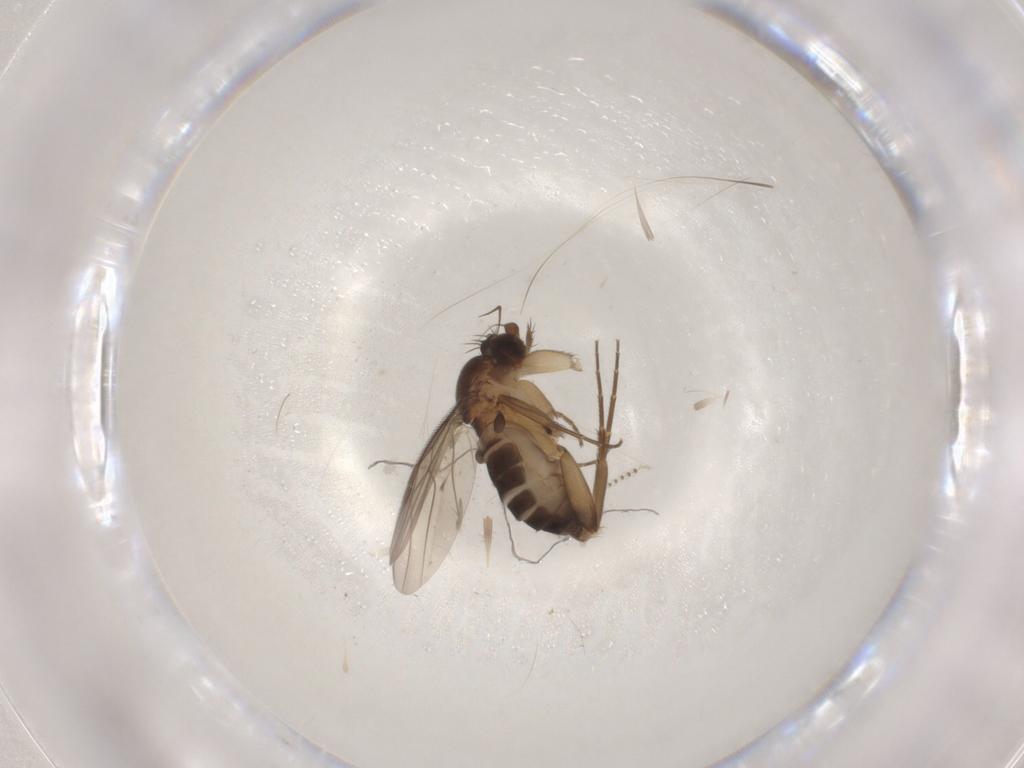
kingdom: Animalia
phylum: Arthropoda
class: Insecta
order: Diptera
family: Phoridae
